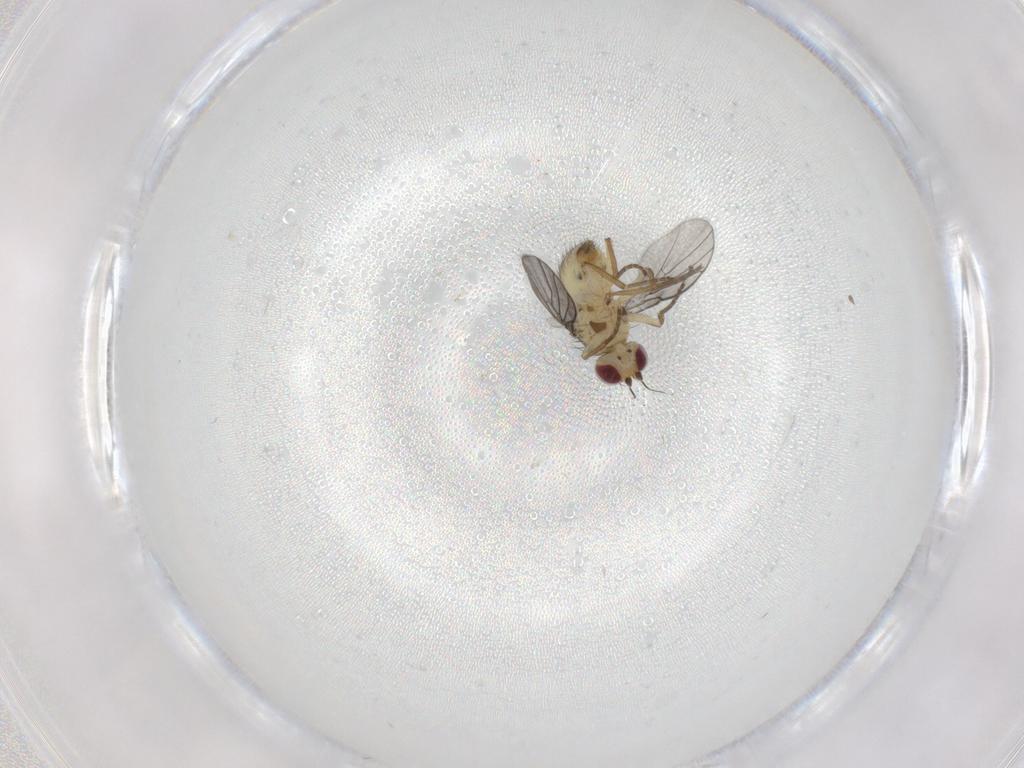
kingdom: Animalia
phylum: Arthropoda
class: Insecta
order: Diptera
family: Agromyzidae
